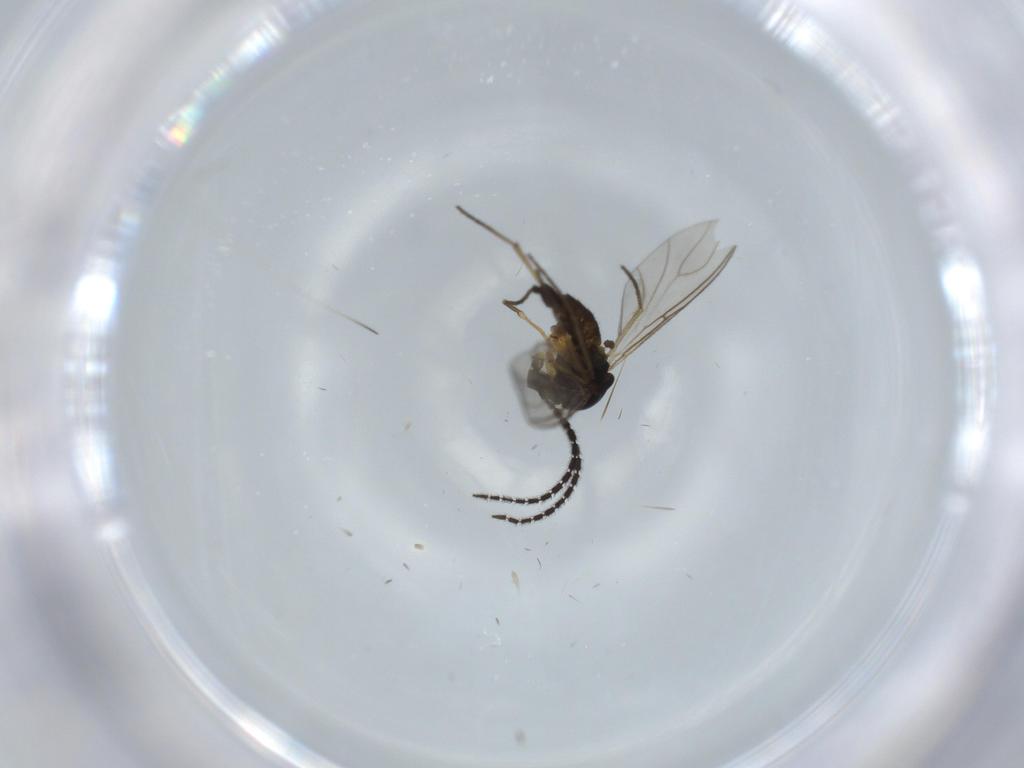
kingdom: Animalia
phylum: Arthropoda
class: Insecta
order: Diptera
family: Sciaridae
